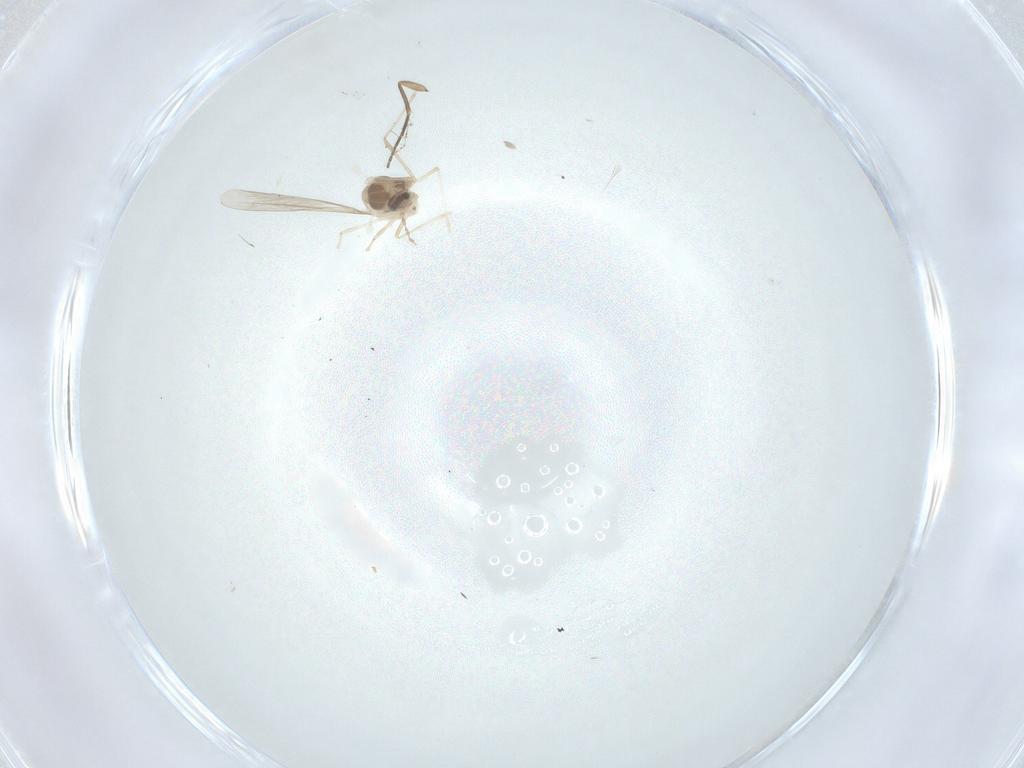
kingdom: Animalia
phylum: Arthropoda
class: Insecta
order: Diptera
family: Cecidomyiidae
